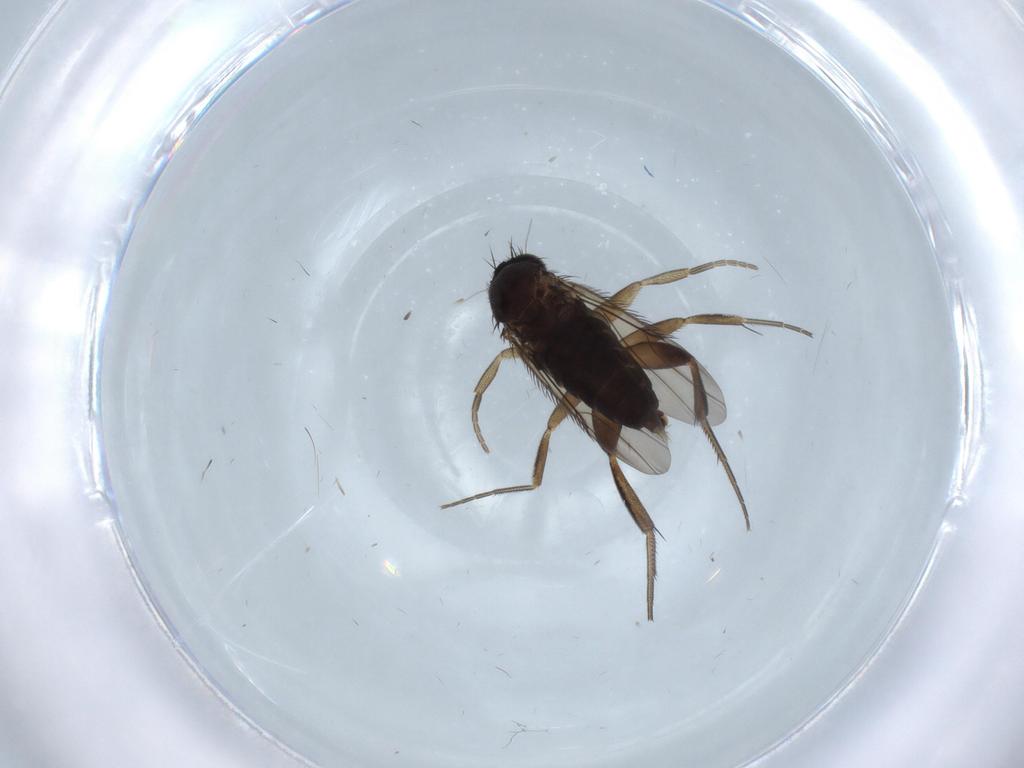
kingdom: Animalia
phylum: Arthropoda
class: Insecta
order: Diptera
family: Phoridae
